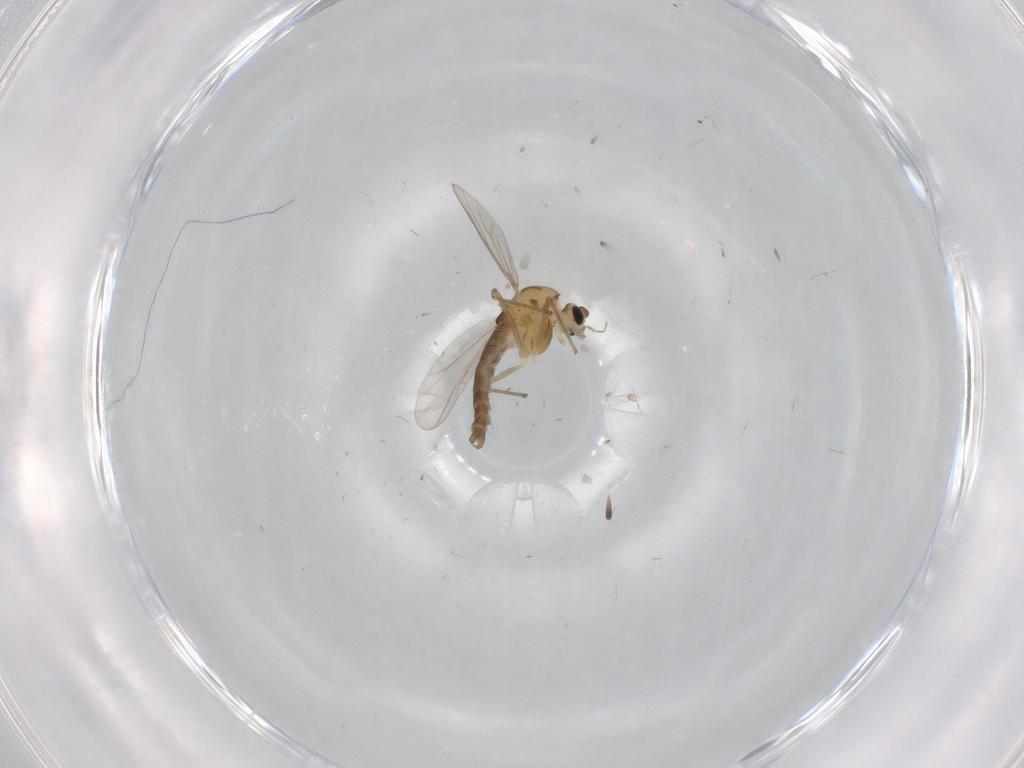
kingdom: Animalia
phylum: Arthropoda
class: Insecta
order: Diptera
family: Chironomidae
